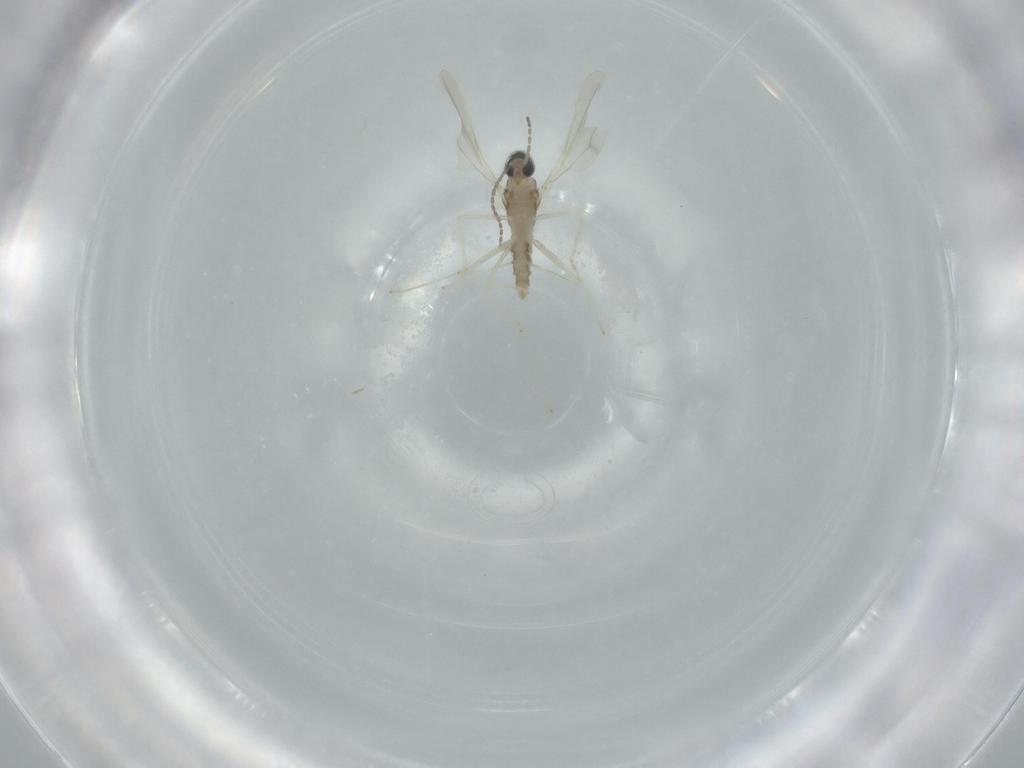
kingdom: Animalia
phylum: Arthropoda
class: Insecta
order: Diptera
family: Cecidomyiidae
